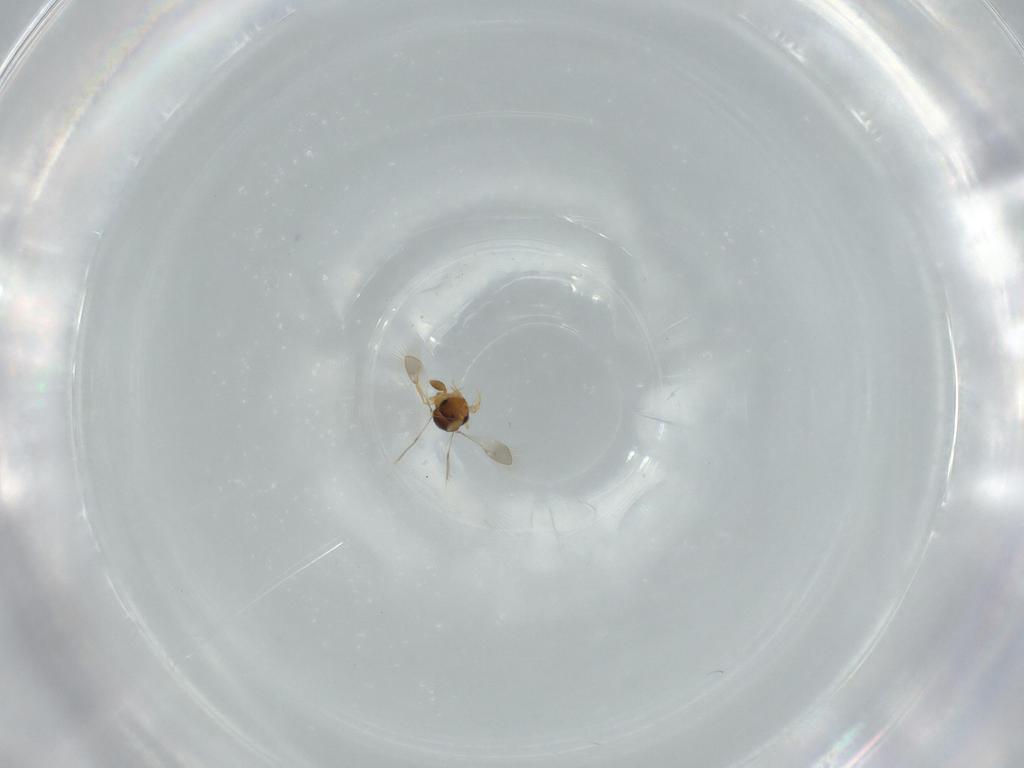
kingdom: Animalia
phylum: Arthropoda
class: Insecta
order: Hymenoptera
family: Scelionidae
